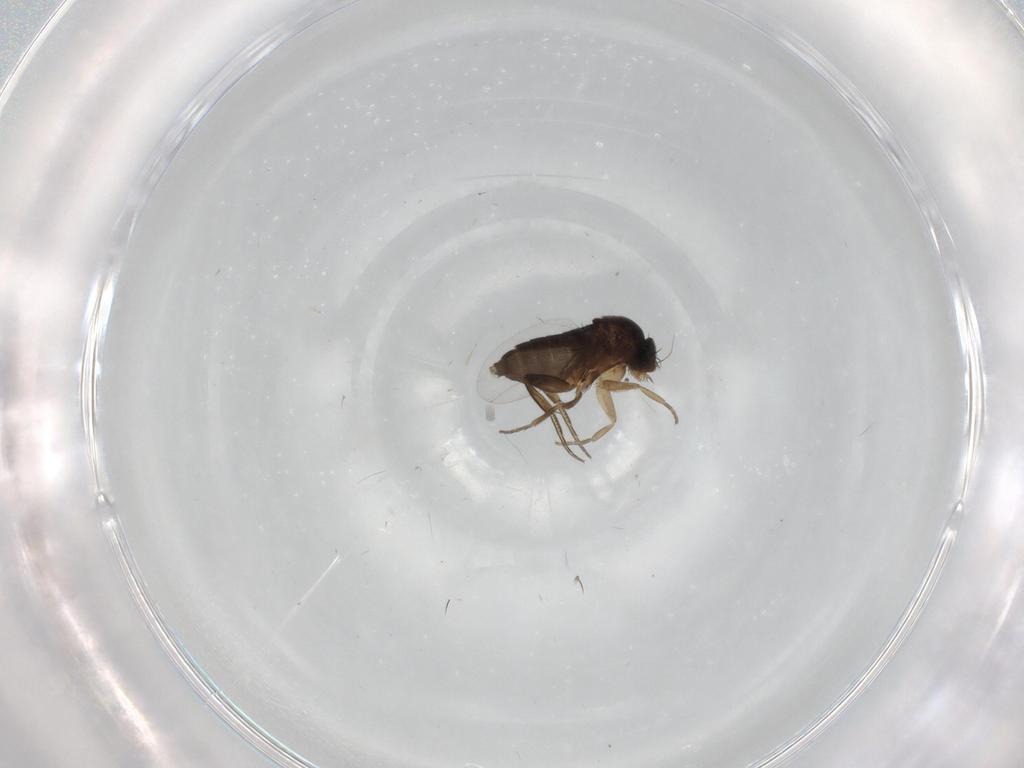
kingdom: Animalia
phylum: Arthropoda
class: Insecta
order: Diptera
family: Phoridae
